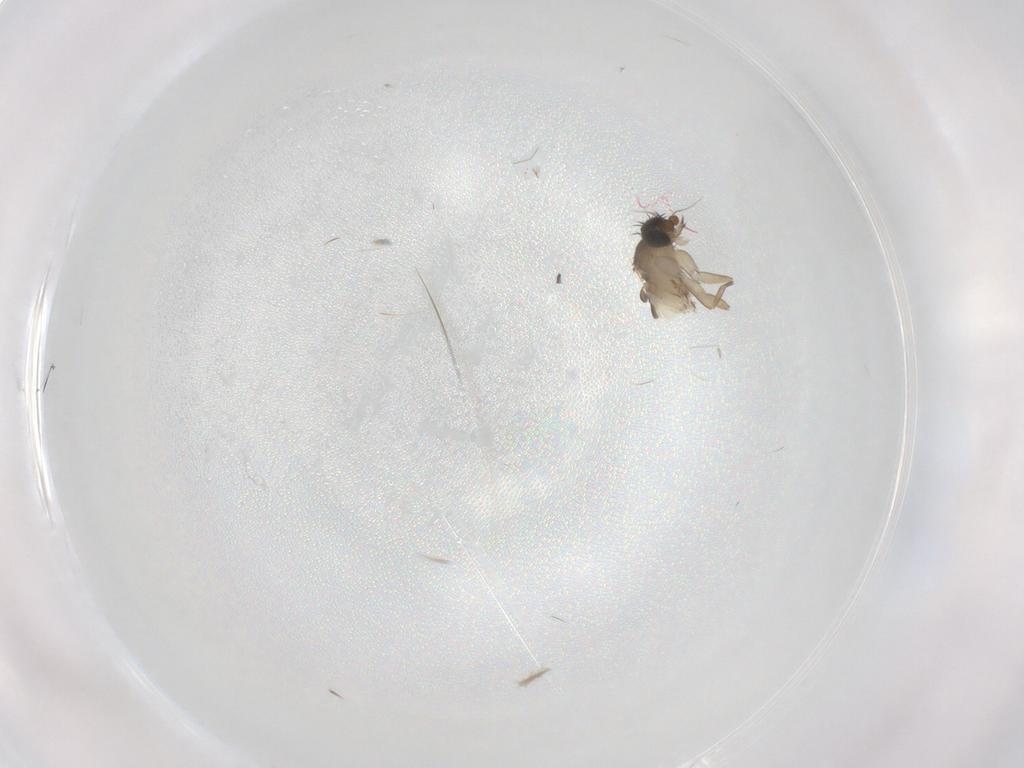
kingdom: Animalia
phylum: Arthropoda
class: Insecta
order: Diptera
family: Phoridae
